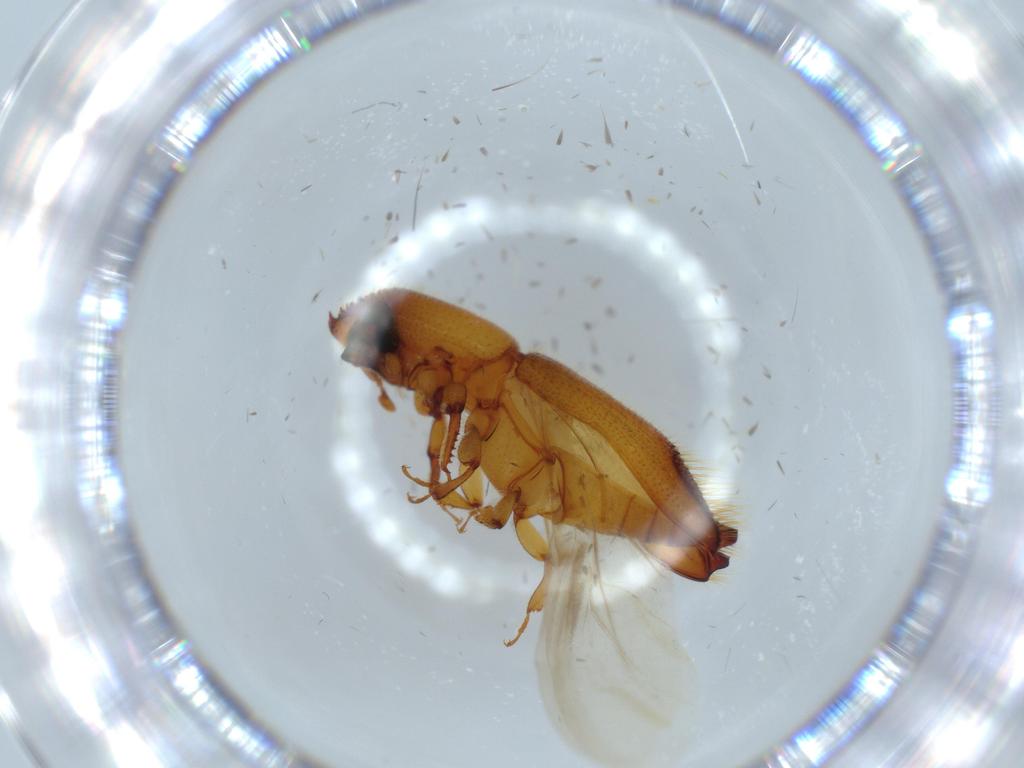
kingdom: Animalia
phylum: Arthropoda
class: Insecta
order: Coleoptera
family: Curculionidae
